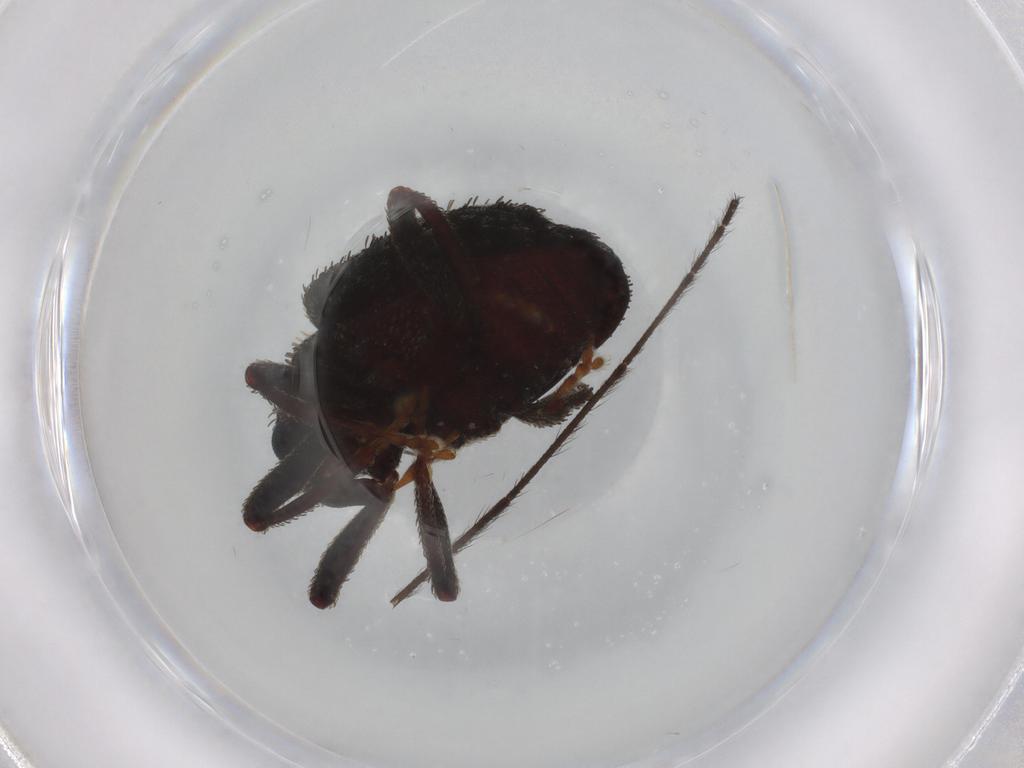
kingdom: Animalia
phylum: Arthropoda
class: Insecta
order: Coleoptera
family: Curculionidae
